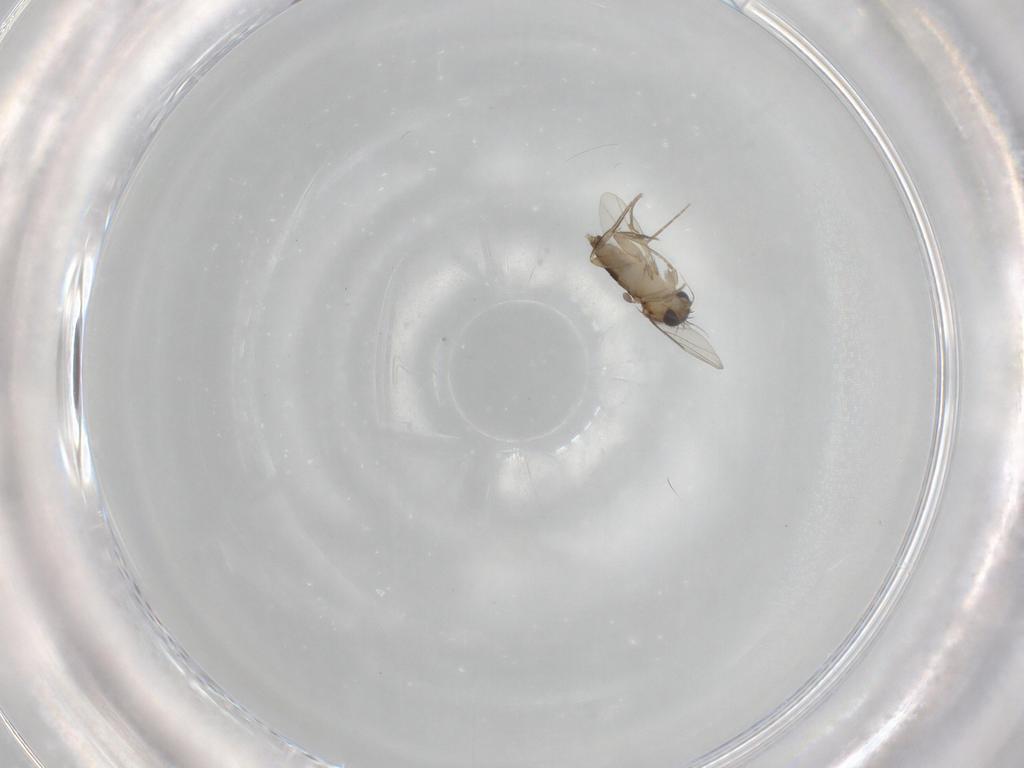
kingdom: Animalia
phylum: Arthropoda
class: Insecta
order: Diptera
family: Phoridae
